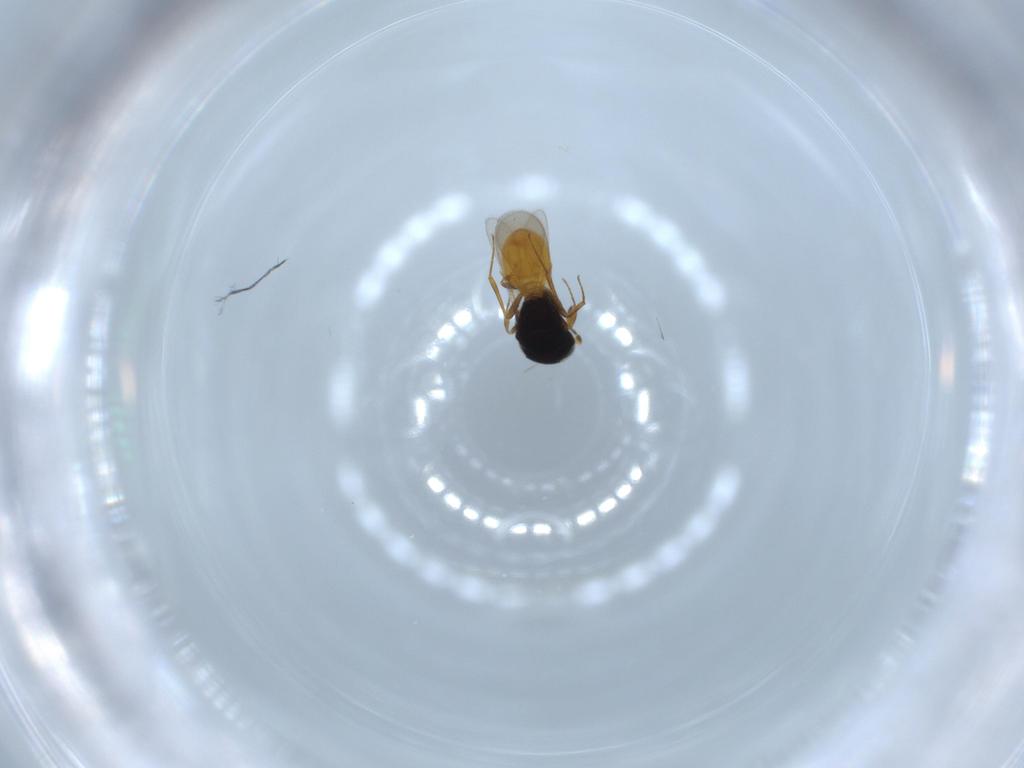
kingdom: Animalia
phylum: Arthropoda
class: Insecta
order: Hymenoptera
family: Scelionidae
